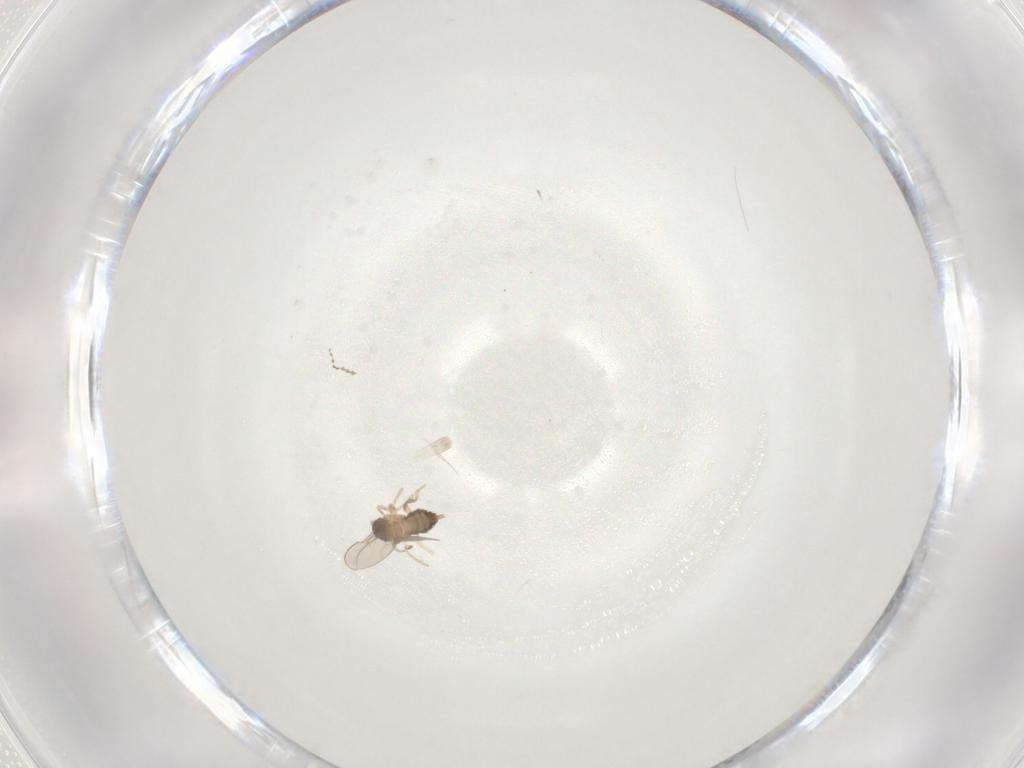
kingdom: Animalia
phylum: Arthropoda
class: Insecta
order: Diptera
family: Cecidomyiidae
